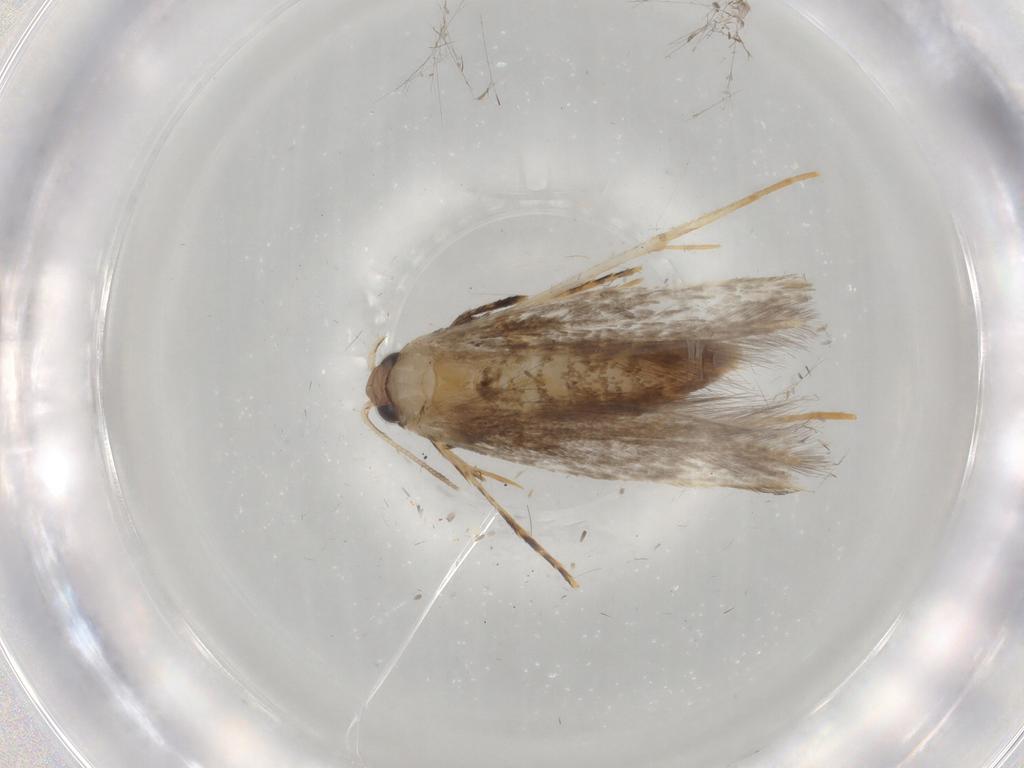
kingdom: Animalia
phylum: Arthropoda
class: Insecta
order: Lepidoptera
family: Tineidae
